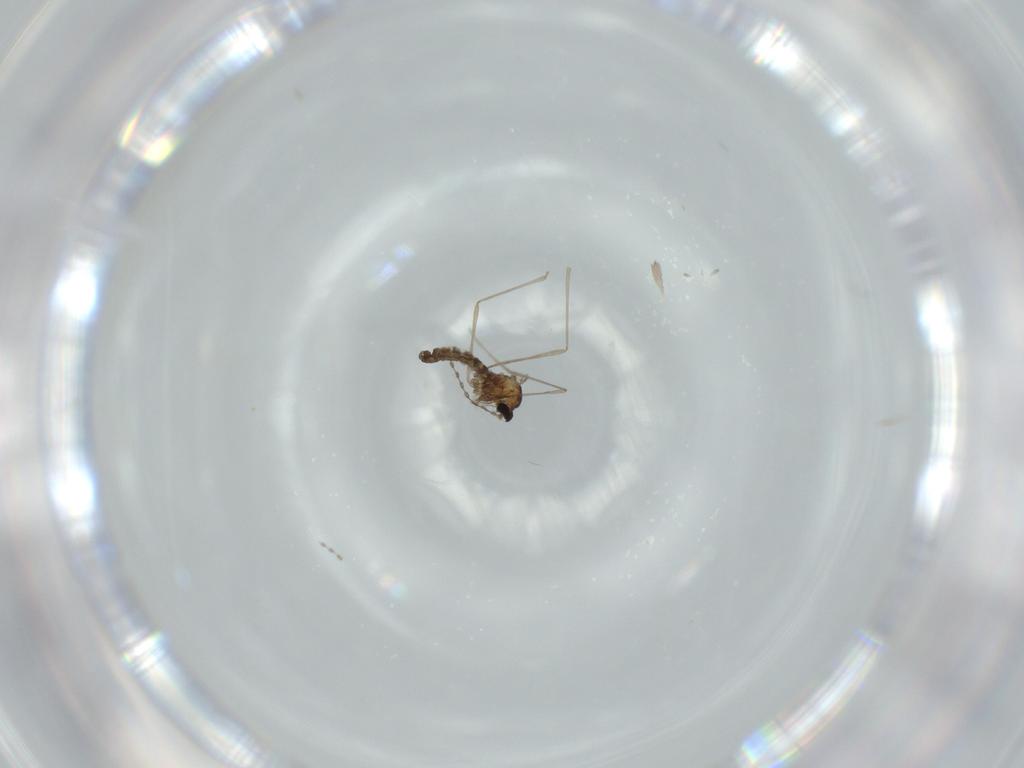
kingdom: Animalia
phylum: Arthropoda
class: Insecta
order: Diptera
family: Cecidomyiidae
